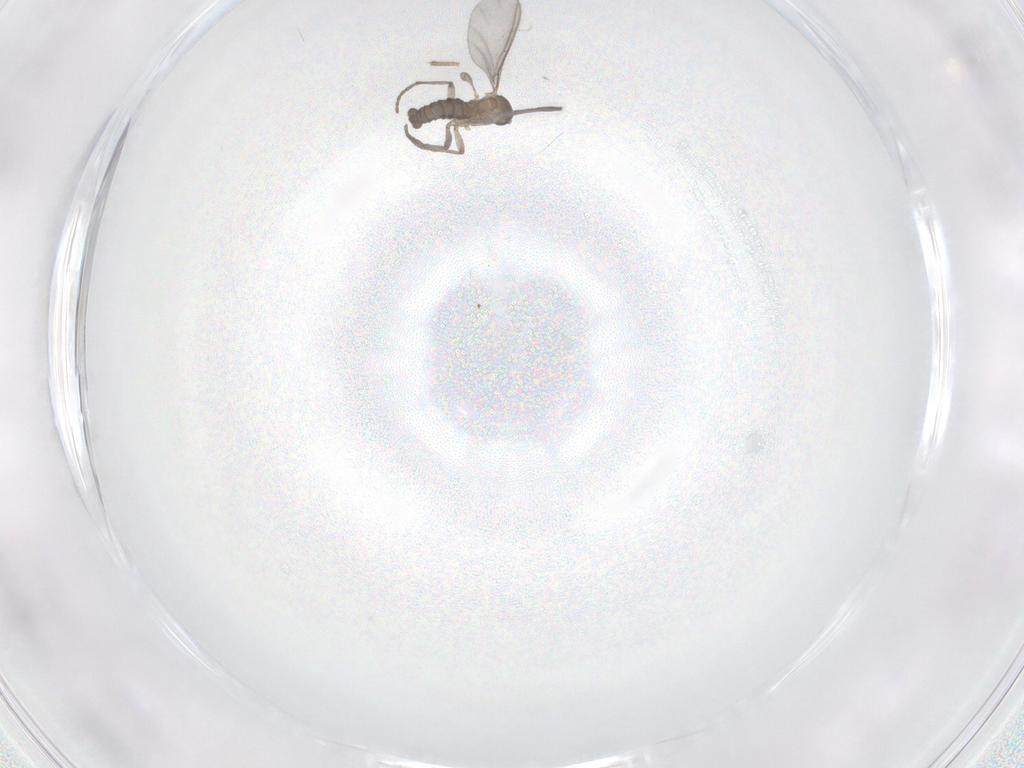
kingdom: Animalia
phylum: Arthropoda
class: Insecta
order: Diptera
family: Sciaridae
